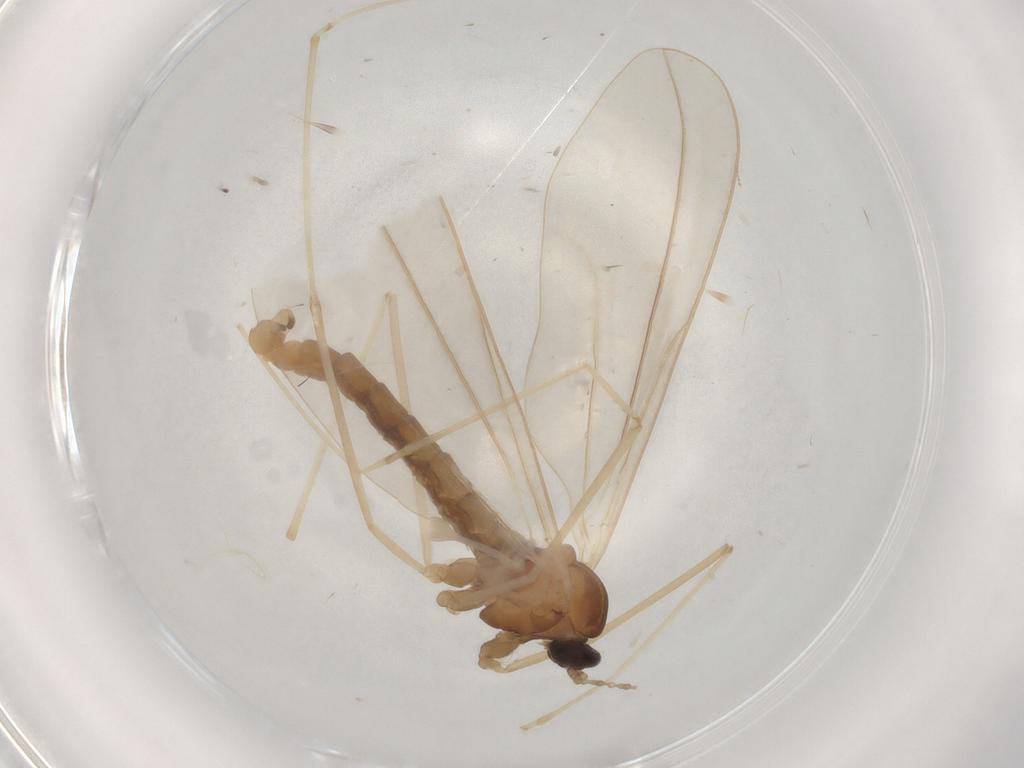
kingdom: Animalia
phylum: Arthropoda
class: Insecta
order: Diptera
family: Cecidomyiidae
